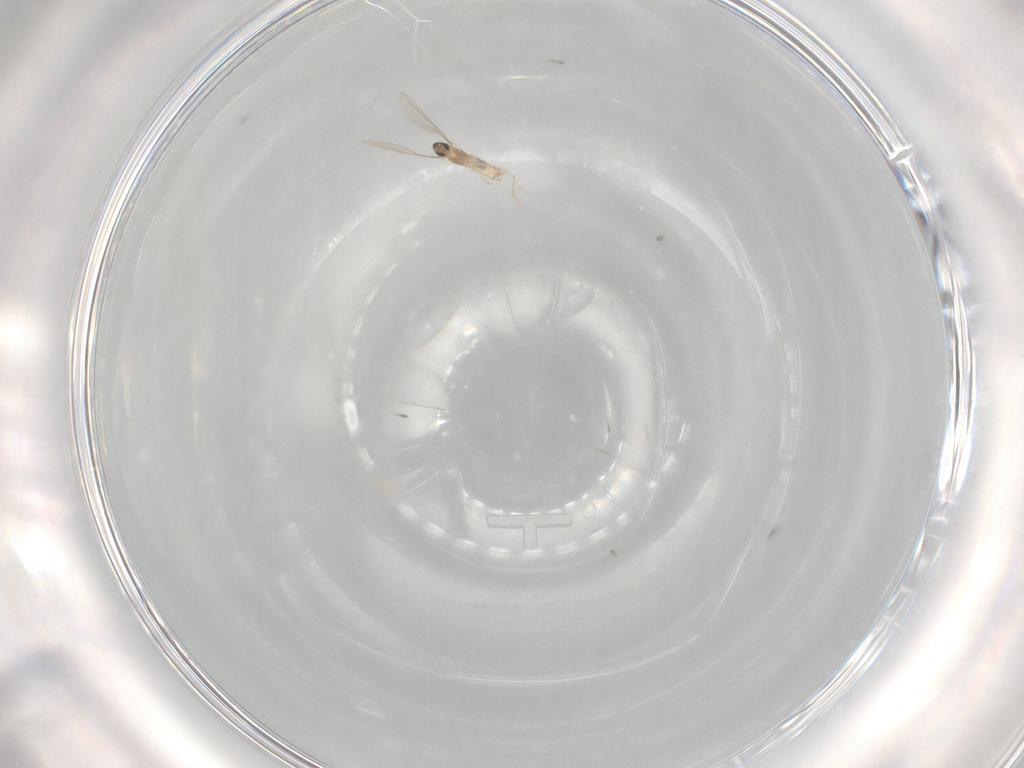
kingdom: Animalia
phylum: Arthropoda
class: Insecta
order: Diptera
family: Cecidomyiidae
